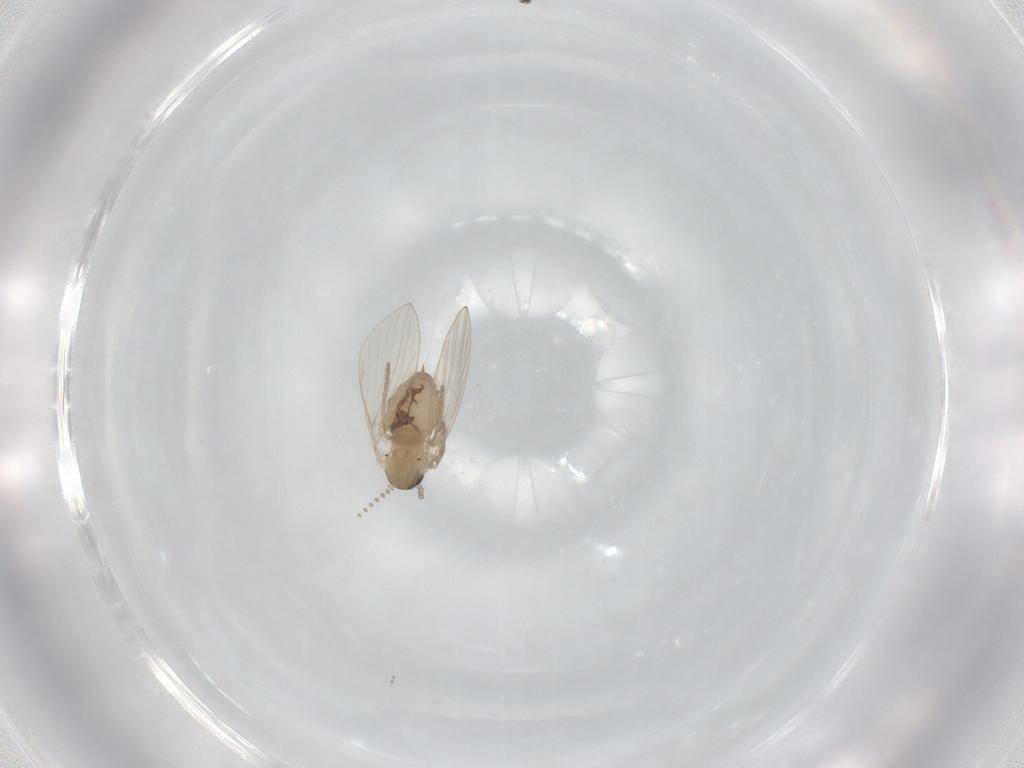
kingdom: Animalia
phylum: Arthropoda
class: Insecta
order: Diptera
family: Psychodidae
